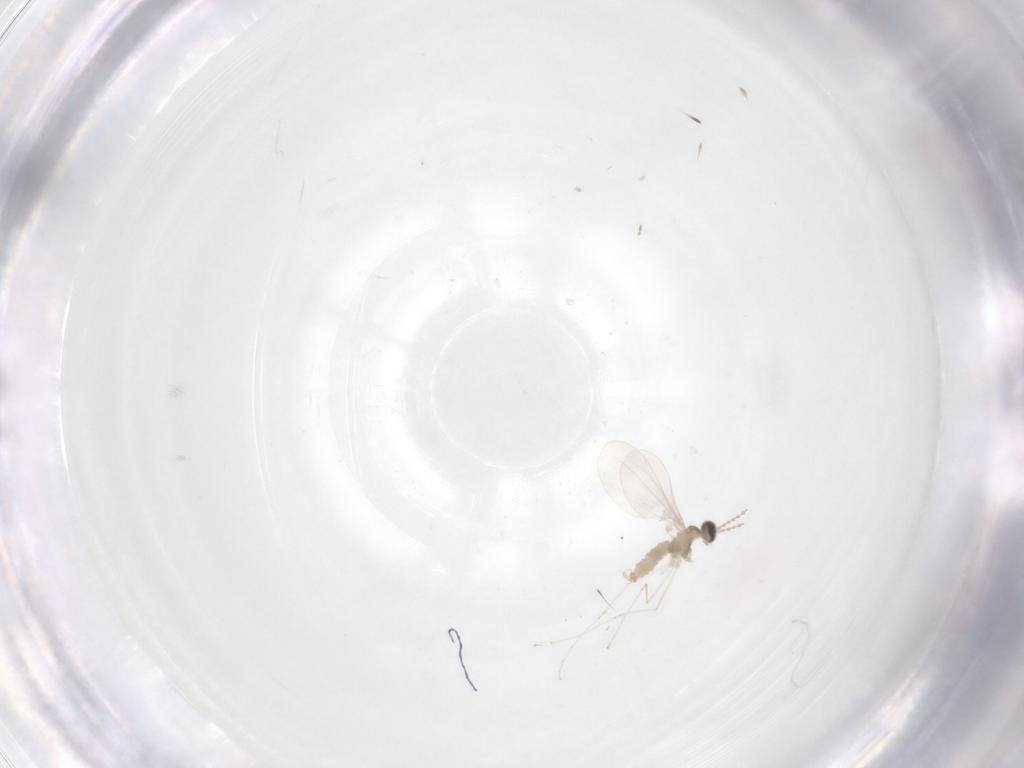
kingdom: Animalia
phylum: Arthropoda
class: Insecta
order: Diptera
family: Cecidomyiidae
